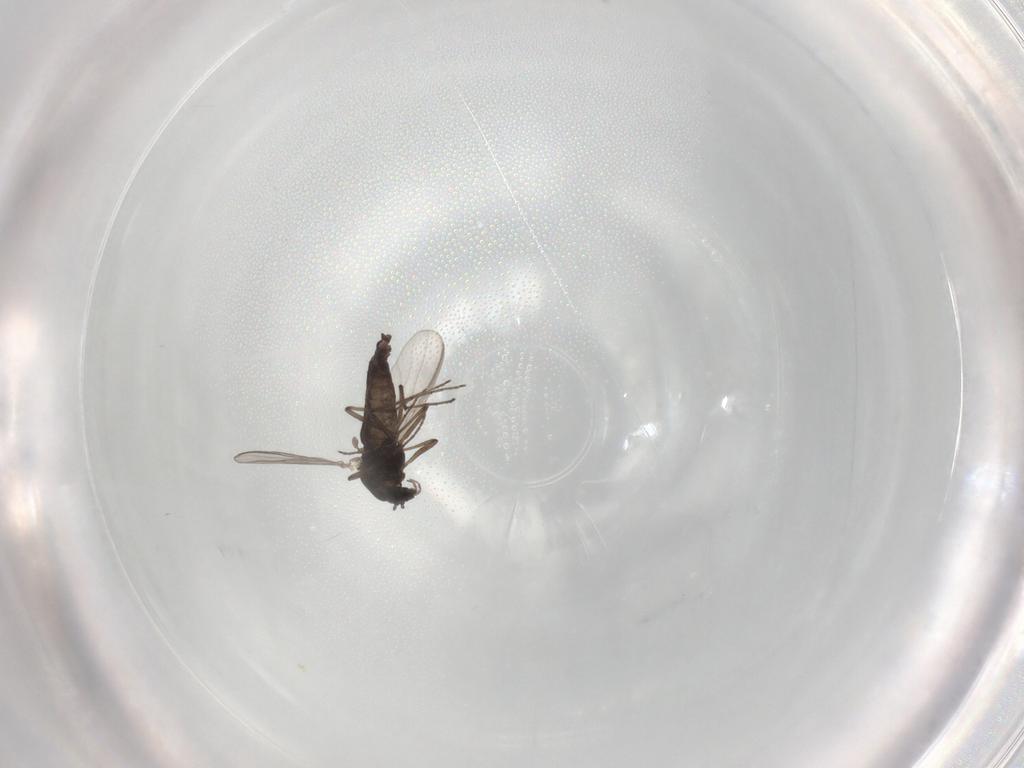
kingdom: Animalia
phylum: Arthropoda
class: Insecta
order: Diptera
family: Chironomidae
